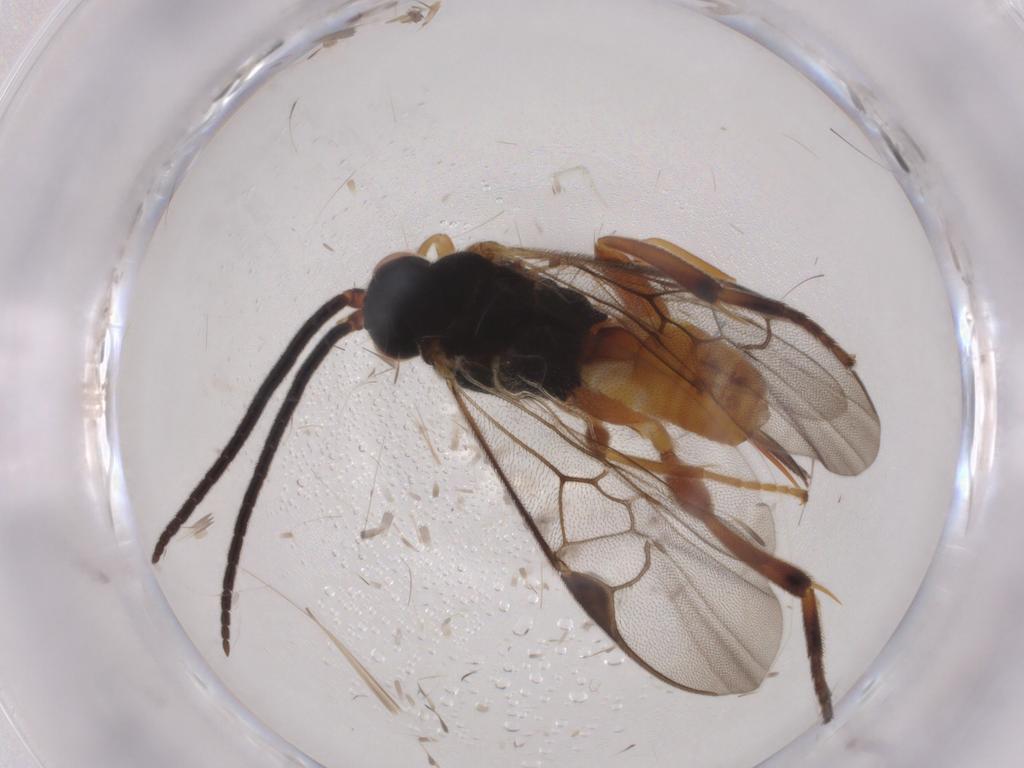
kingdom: Animalia
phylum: Arthropoda
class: Insecta
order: Hymenoptera
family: Braconidae
